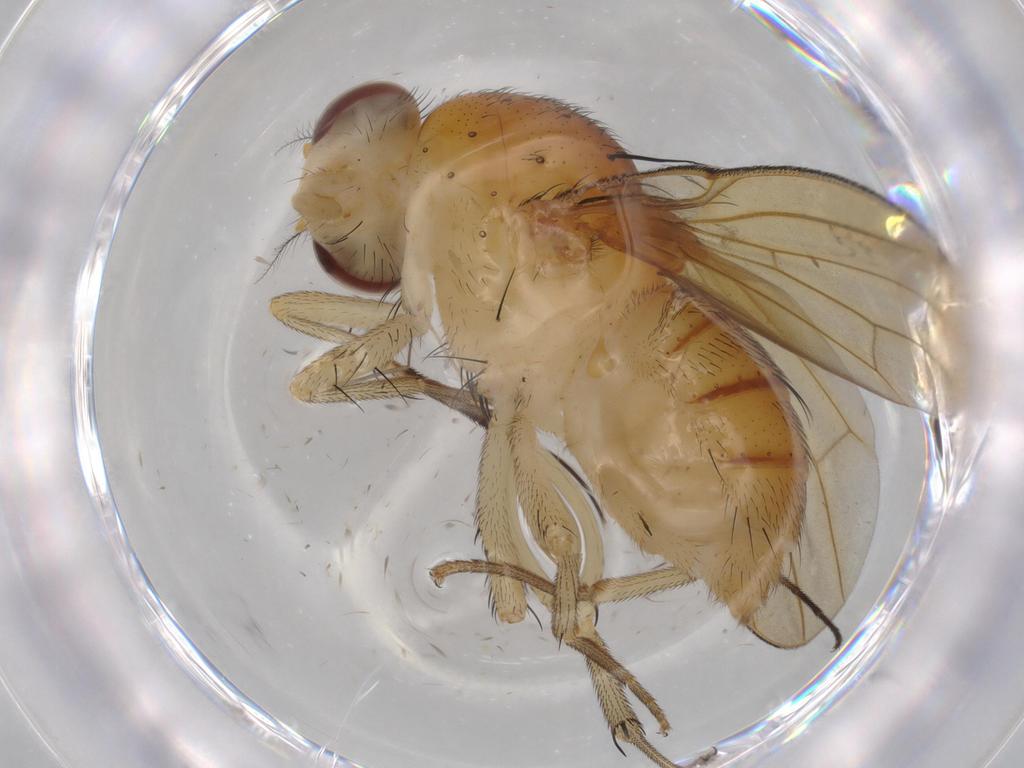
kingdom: Animalia
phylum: Arthropoda
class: Insecta
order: Diptera
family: Dolichopodidae
